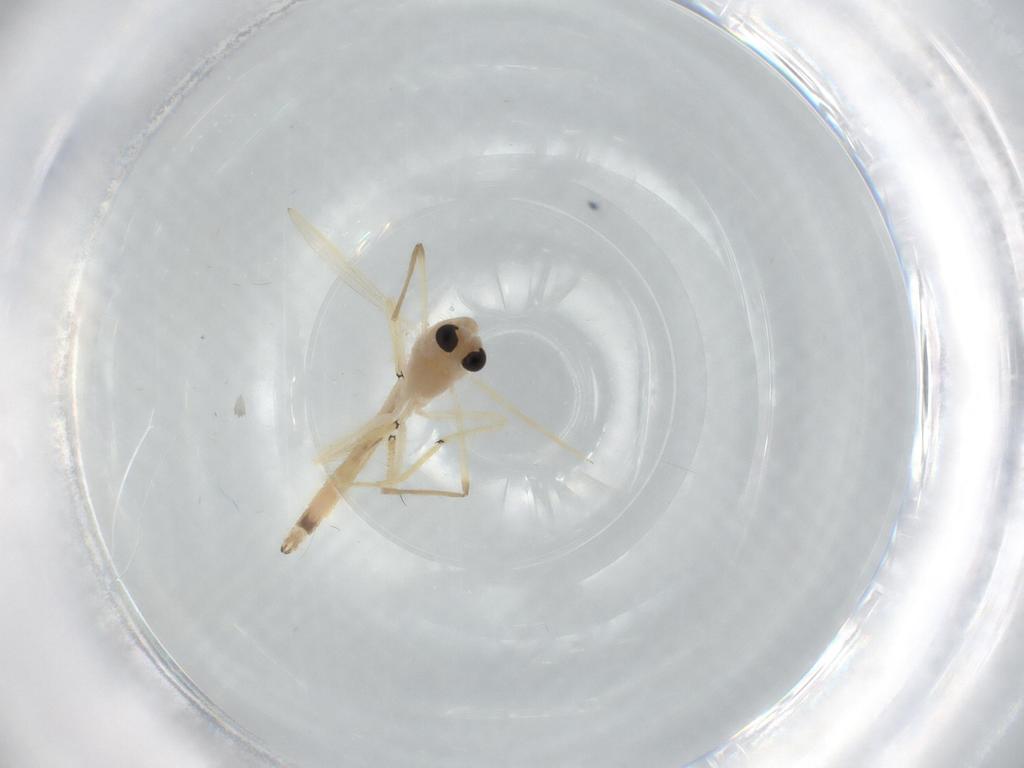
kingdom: Animalia
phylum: Arthropoda
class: Insecta
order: Diptera
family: Chironomidae
